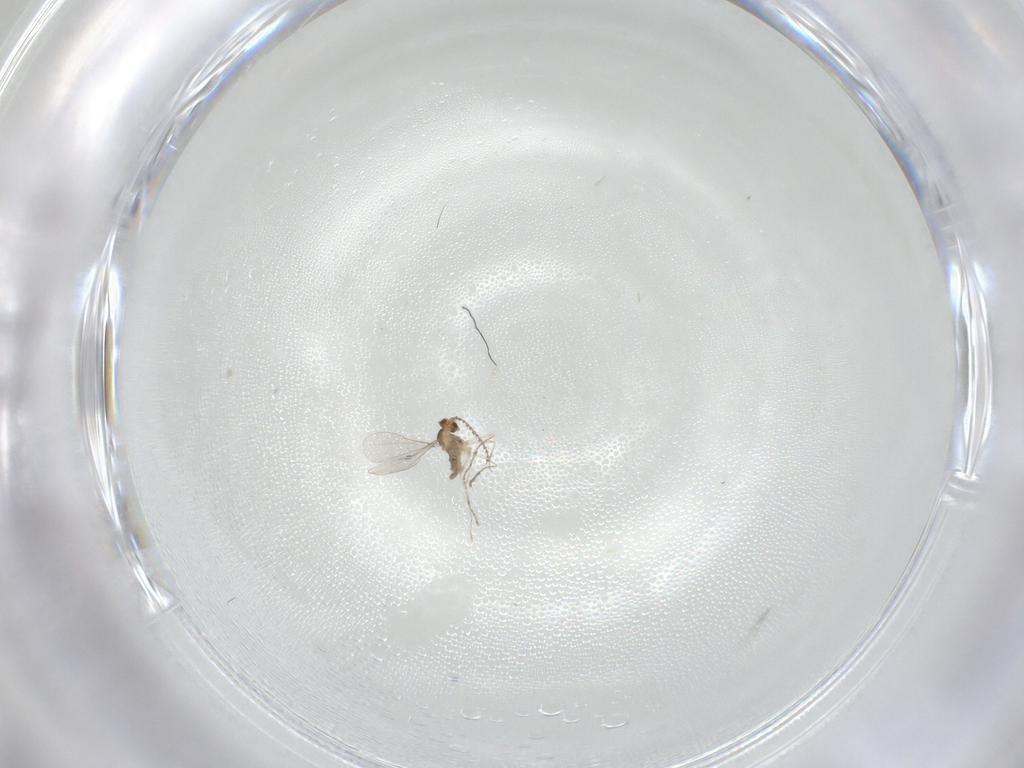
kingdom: Animalia
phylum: Arthropoda
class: Insecta
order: Diptera
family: Cecidomyiidae
